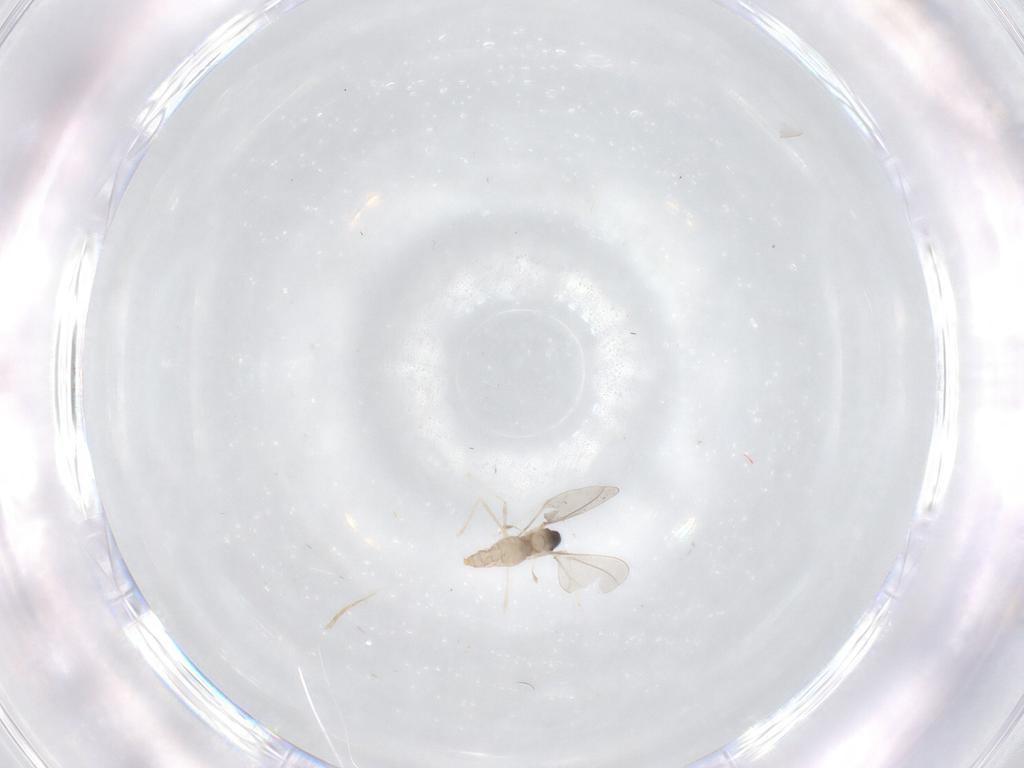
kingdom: Animalia
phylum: Arthropoda
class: Insecta
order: Diptera
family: Cecidomyiidae
